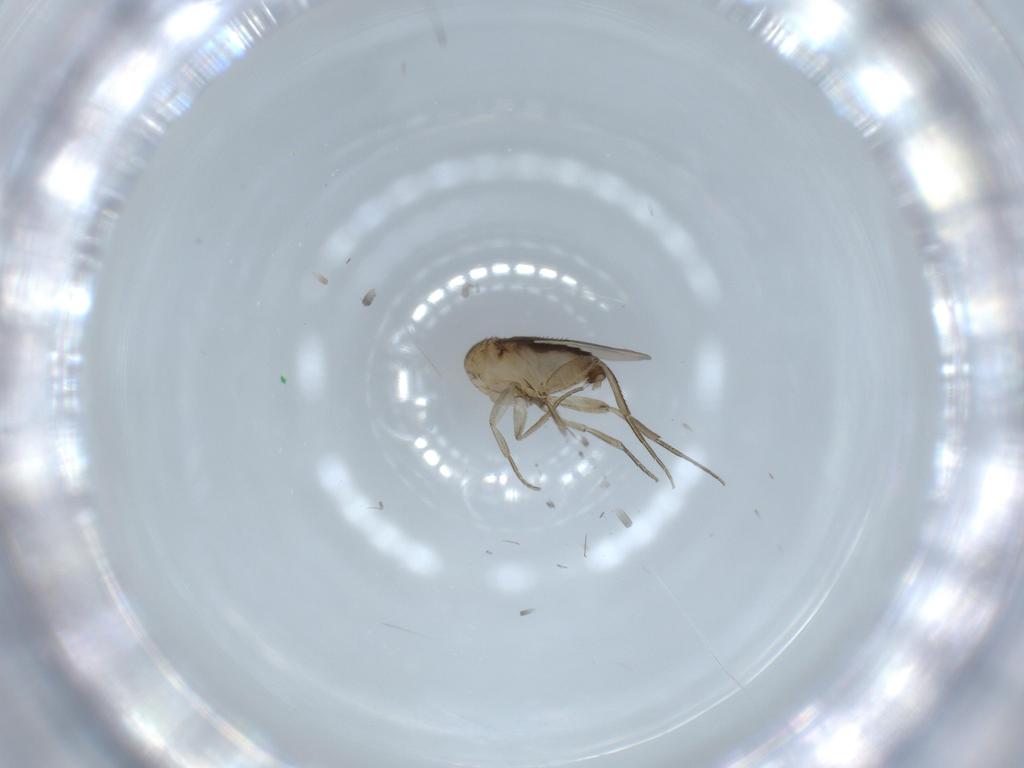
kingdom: Animalia
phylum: Arthropoda
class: Insecta
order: Diptera
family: Phoridae
